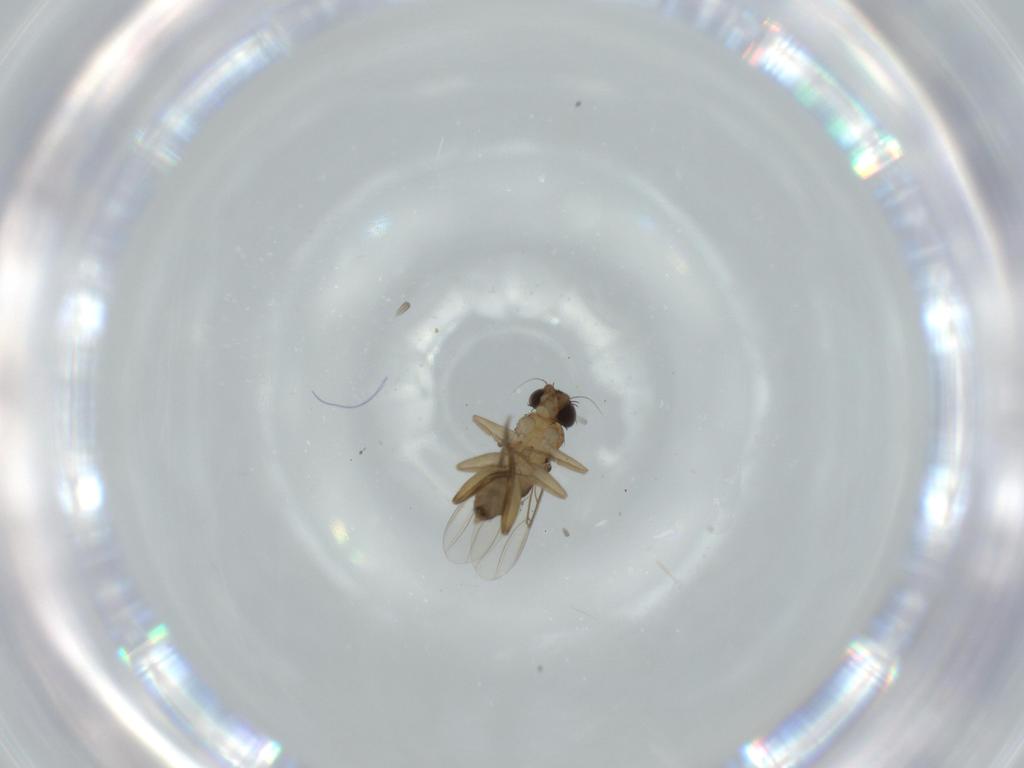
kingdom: Animalia
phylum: Arthropoda
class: Insecta
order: Diptera
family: Phoridae
